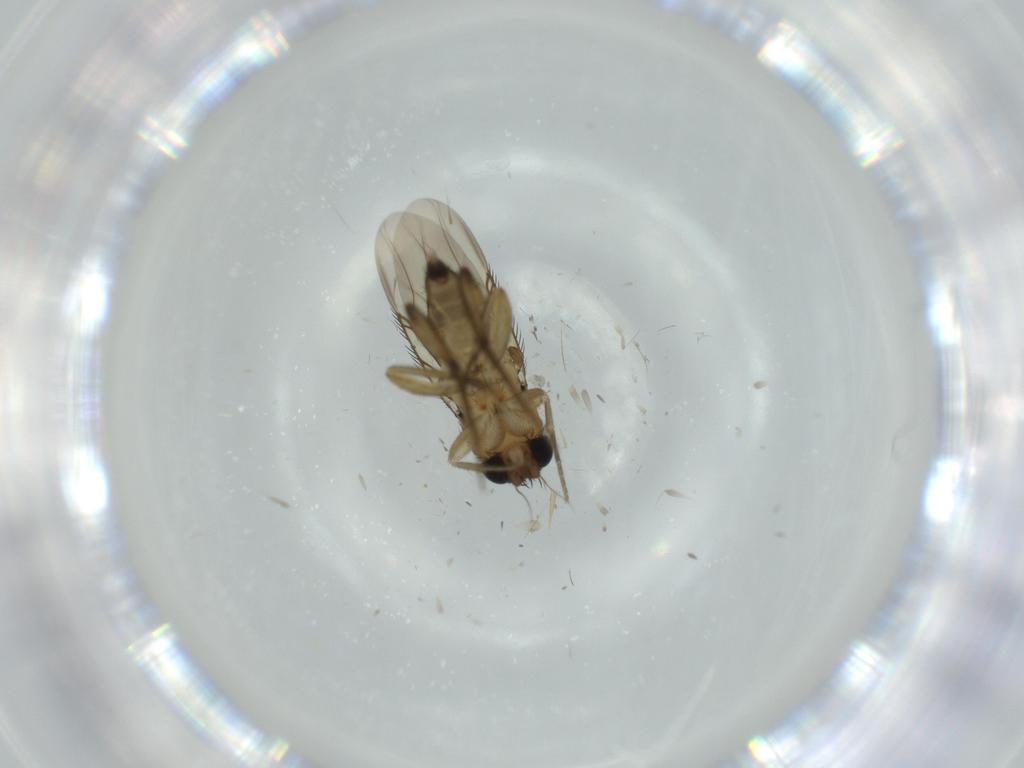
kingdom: Animalia
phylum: Arthropoda
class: Insecta
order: Diptera
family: Phoridae
